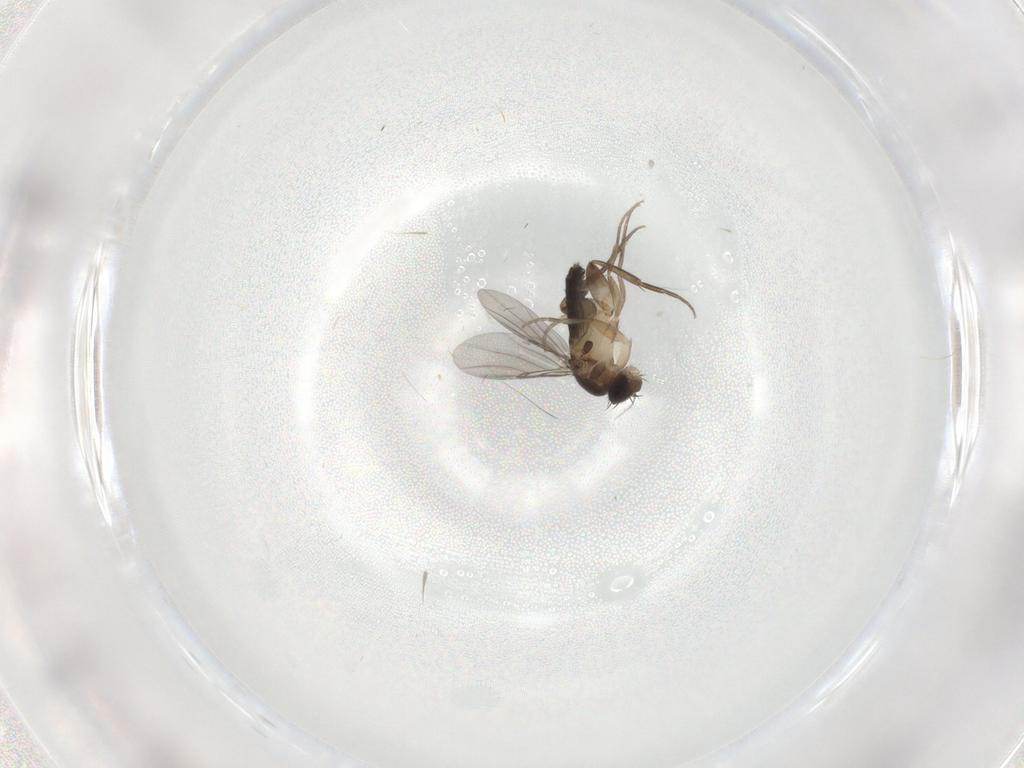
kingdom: Animalia
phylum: Arthropoda
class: Insecta
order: Diptera
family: Phoridae
